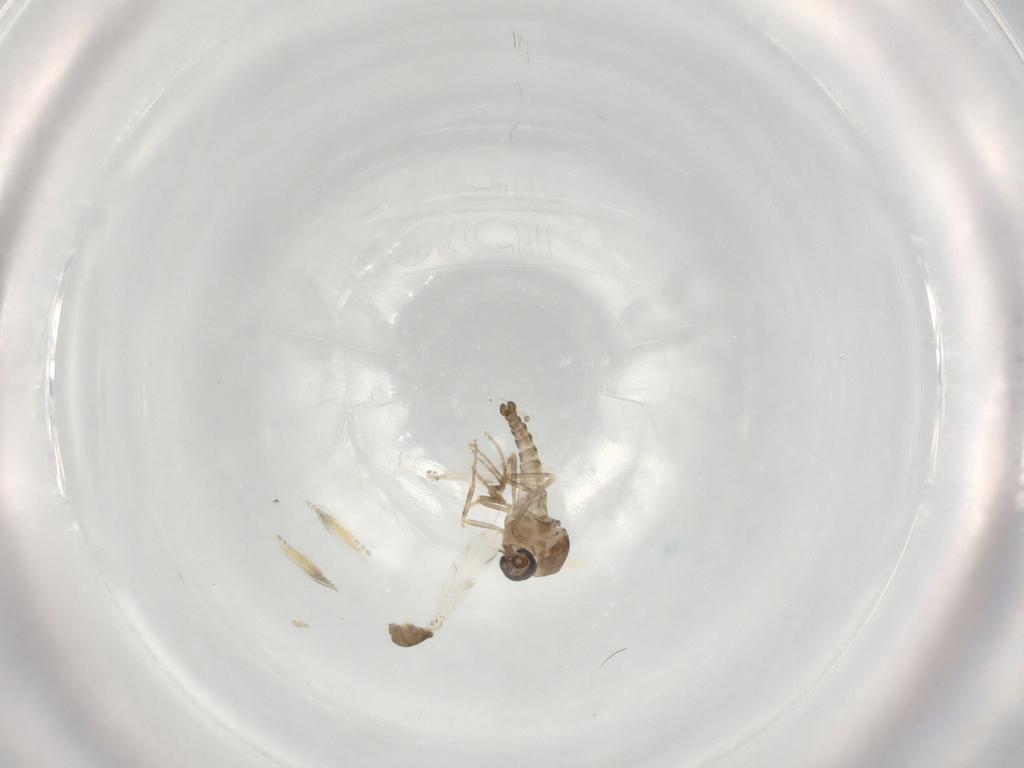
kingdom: Animalia
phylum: Arthropoda
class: Insecta
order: Diptera
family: Ceratopogonidae
